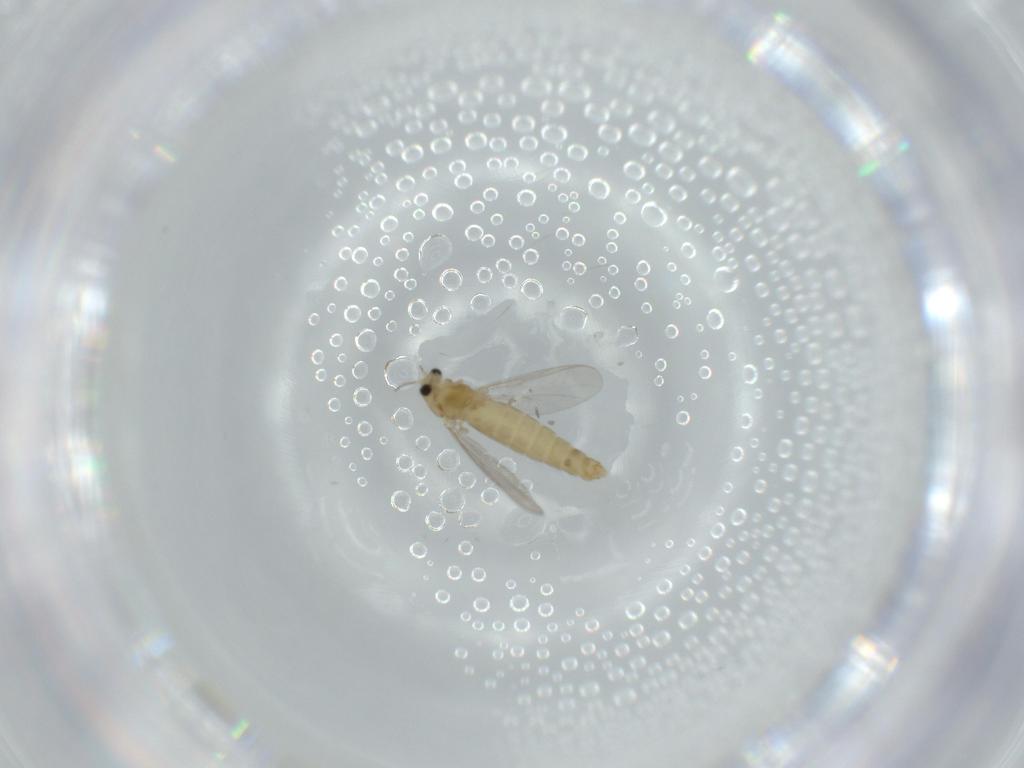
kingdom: Animalia
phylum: Arthropoda
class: Insecta
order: Diptera
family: Chironomidae
